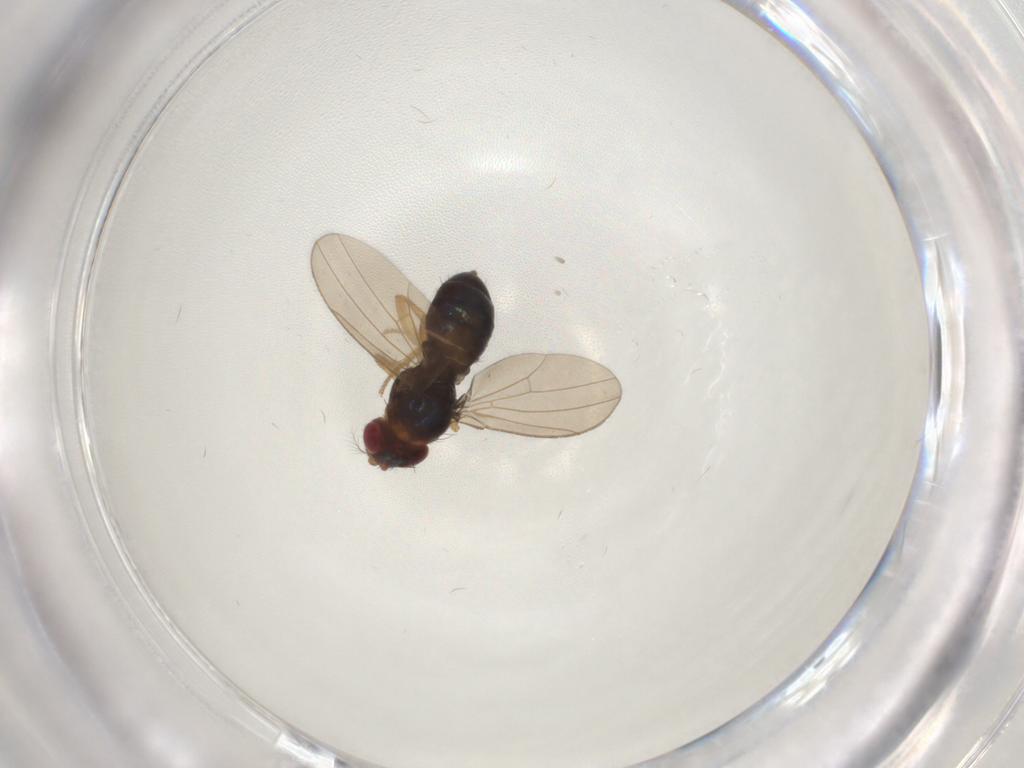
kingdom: Animalia
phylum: Arthropoda
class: Insecta
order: Diptera
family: Drosophilidae
